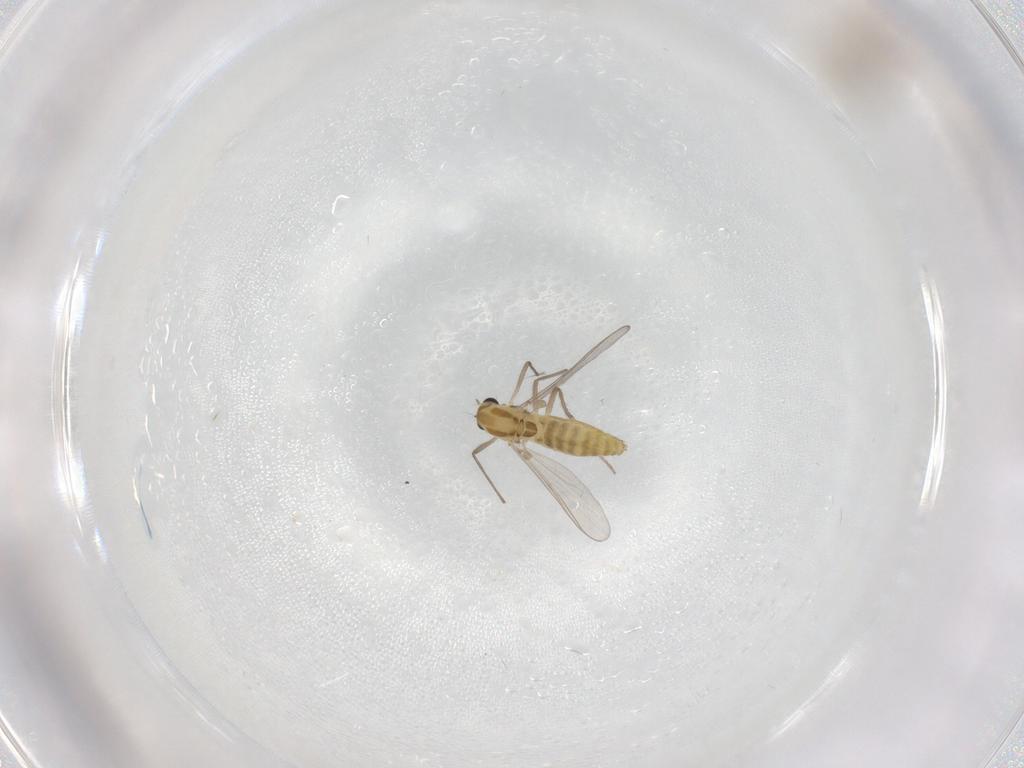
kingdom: Animalia
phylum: Arthropoda
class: Insecta
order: Diptera
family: Chironomidae
